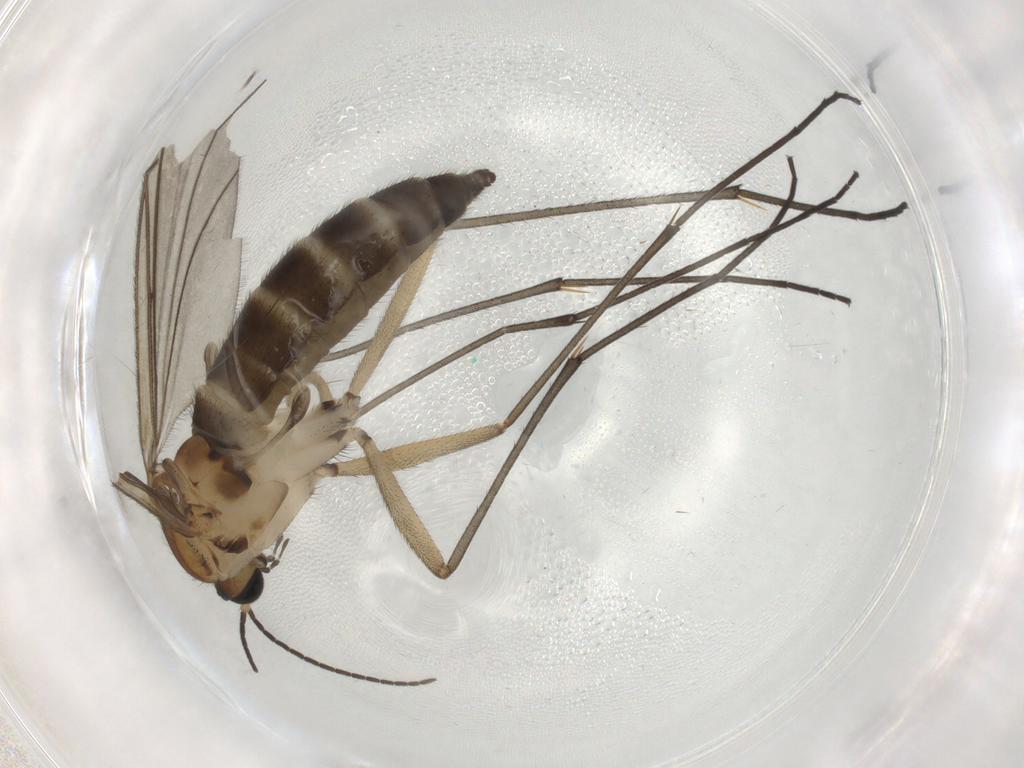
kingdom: Animalia
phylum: Arthropoda
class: Insecta
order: Diptera
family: Sciaridae
